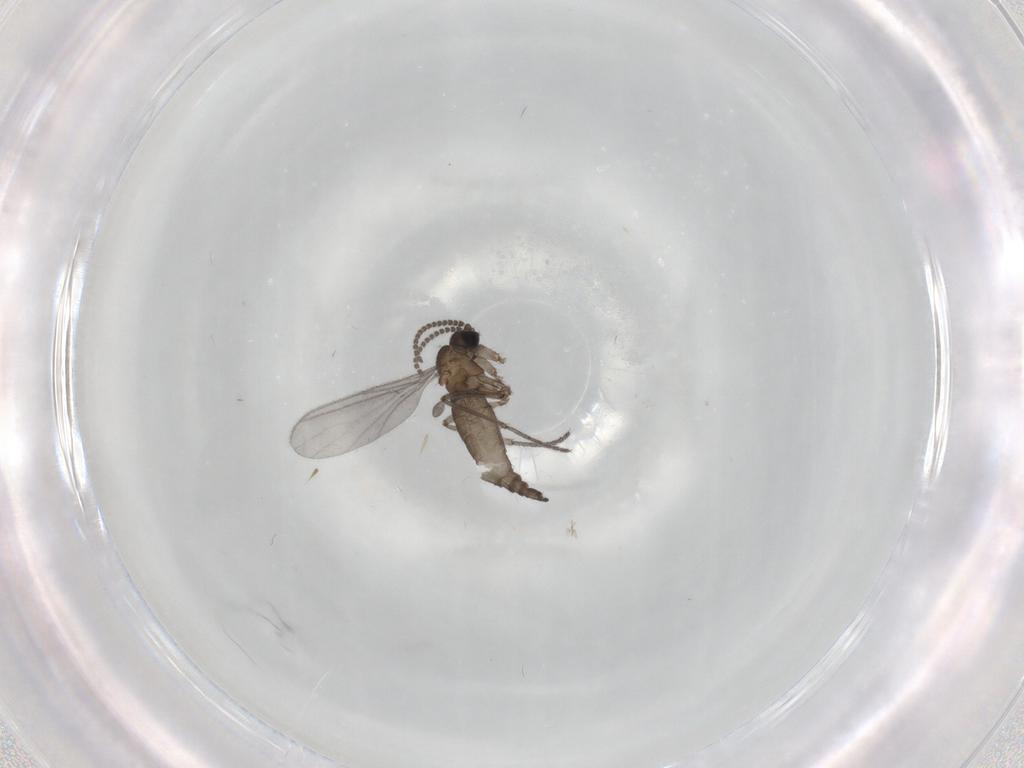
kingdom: Animalia
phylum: Arthropoda
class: Insecta
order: Diptera
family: Sciaridae
